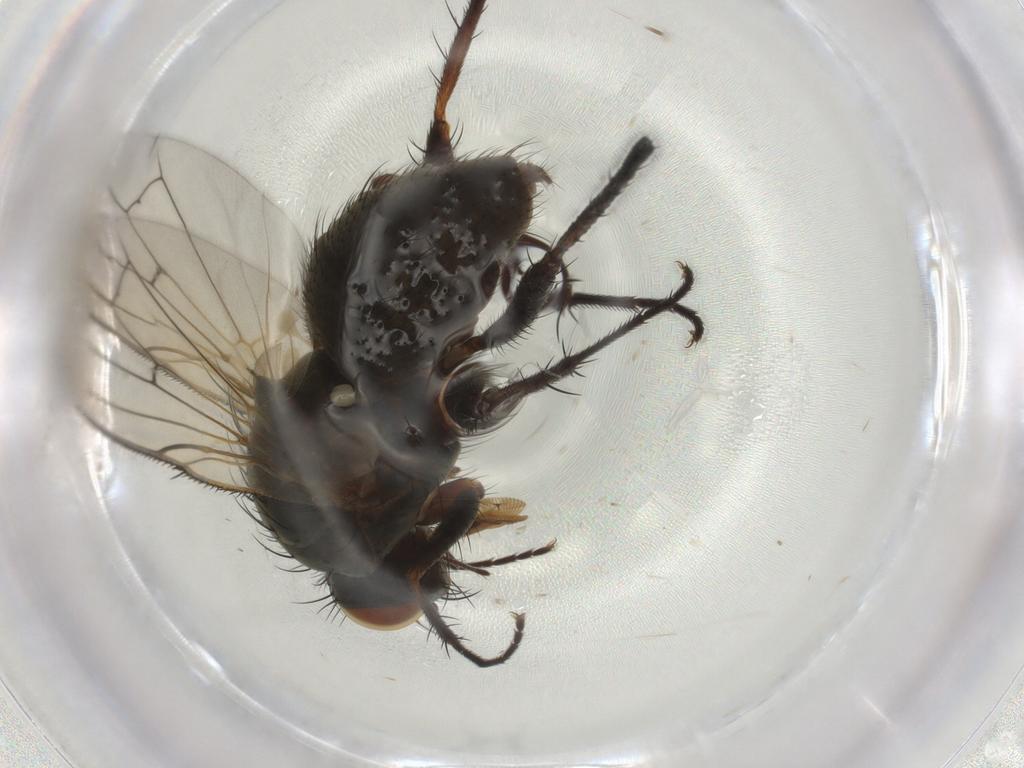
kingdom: Animalia
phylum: Arthropoda
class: Insecta
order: Diptera
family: Anthomyiidae
